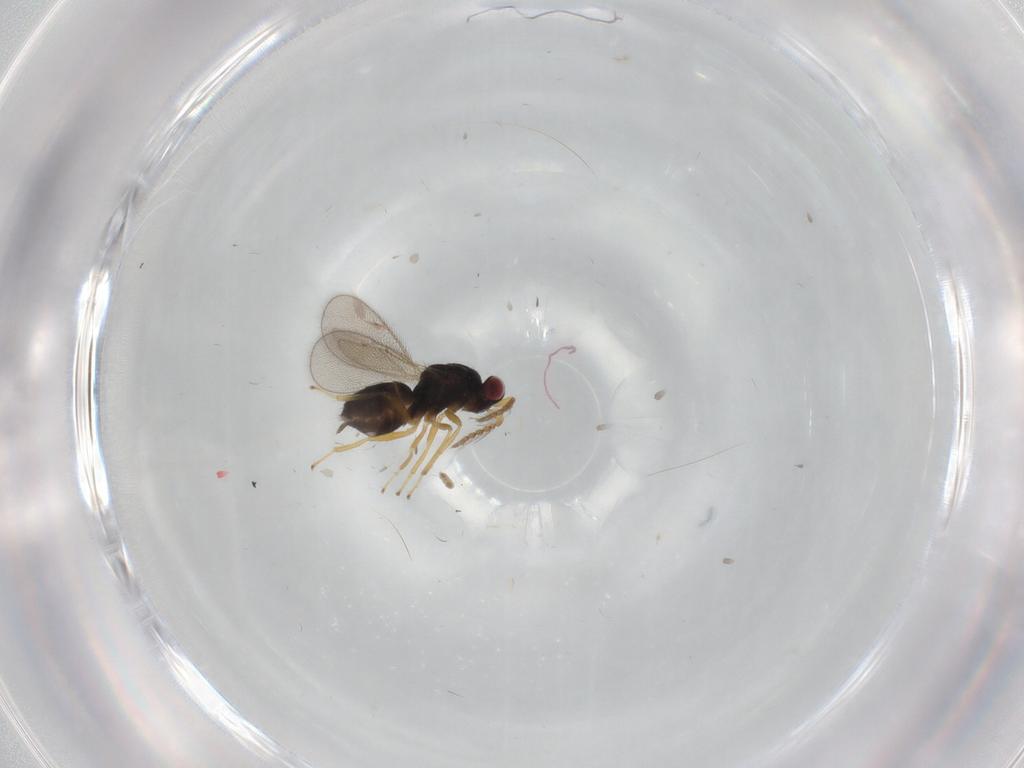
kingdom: Animalia
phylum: Arthropoda
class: Insecta
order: Hymenoptera
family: Eulophidae
